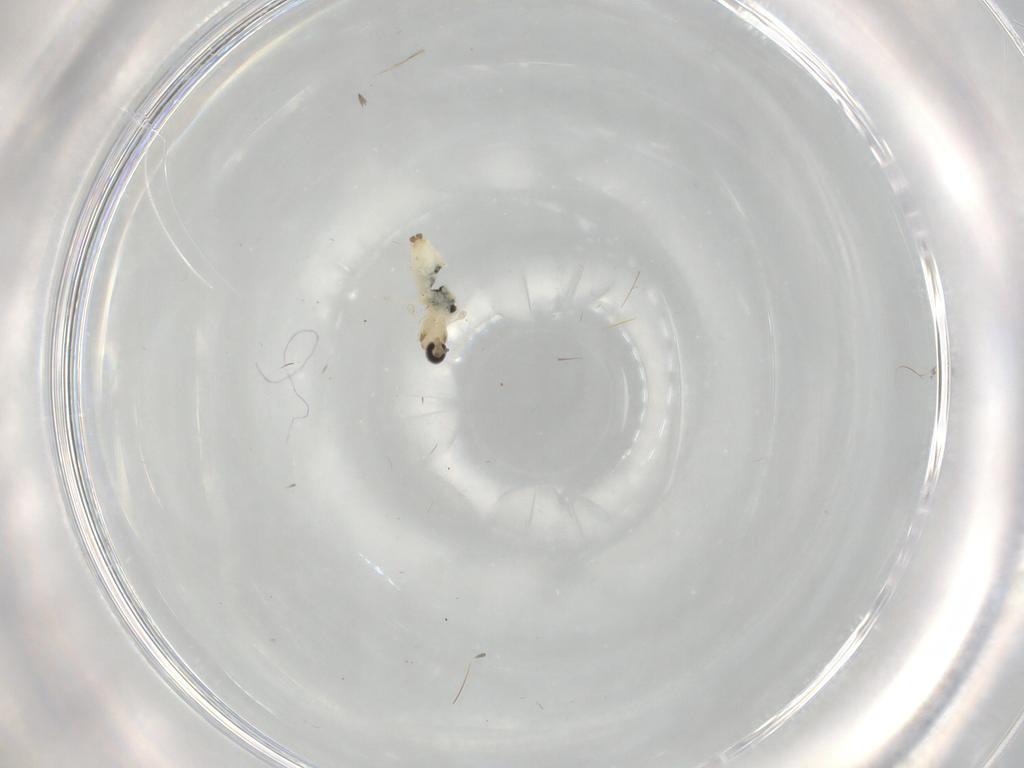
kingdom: Animalia
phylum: Arthropoda
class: Insecta
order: Diptera
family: Cecidomyiidae
